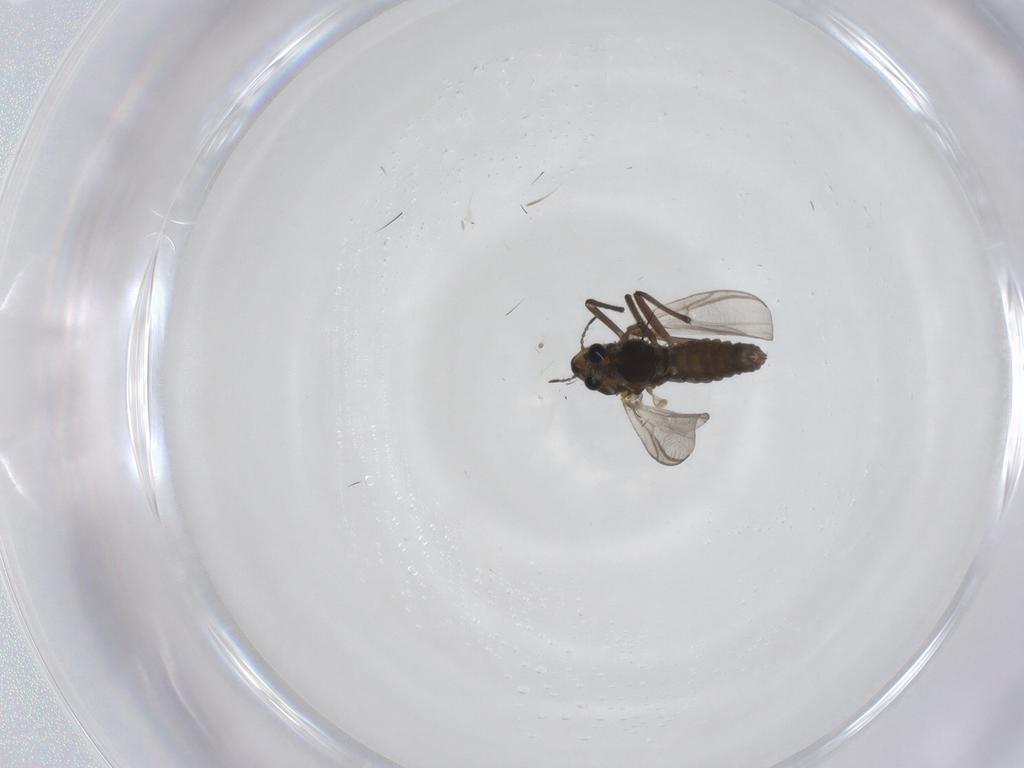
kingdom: Animalia
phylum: Arthropoda
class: Insecta
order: Diptera
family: Chironomidae
